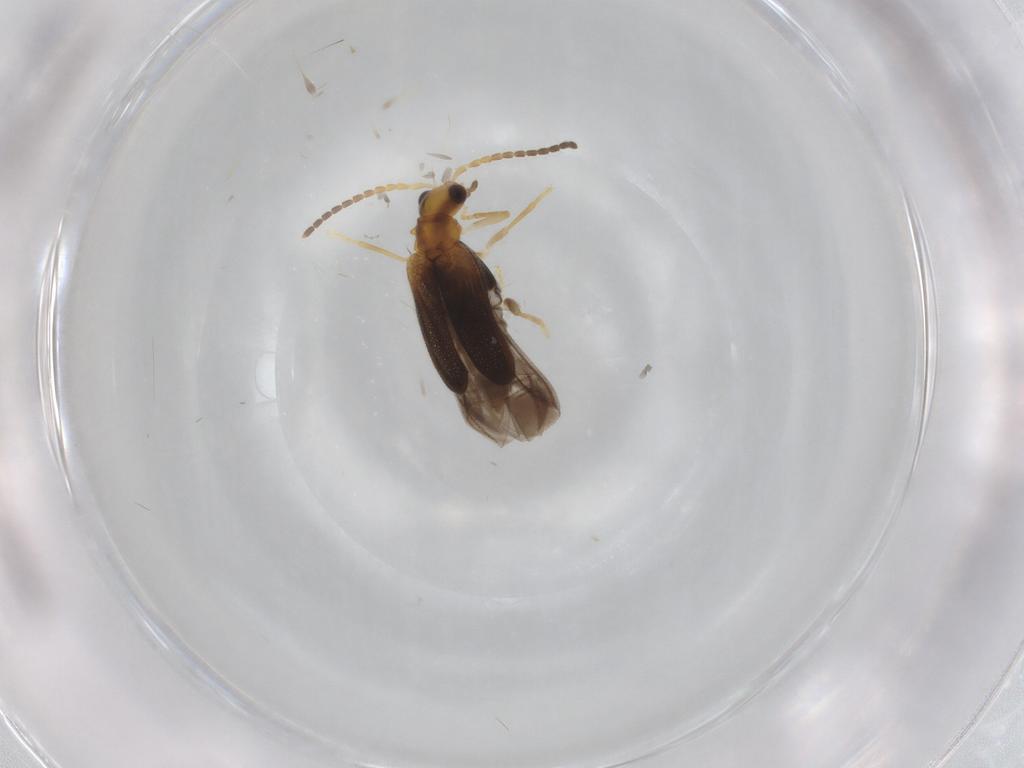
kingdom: Animalia
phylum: Arthropoda
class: Insecta
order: Coleoptera
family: Cantharidae
